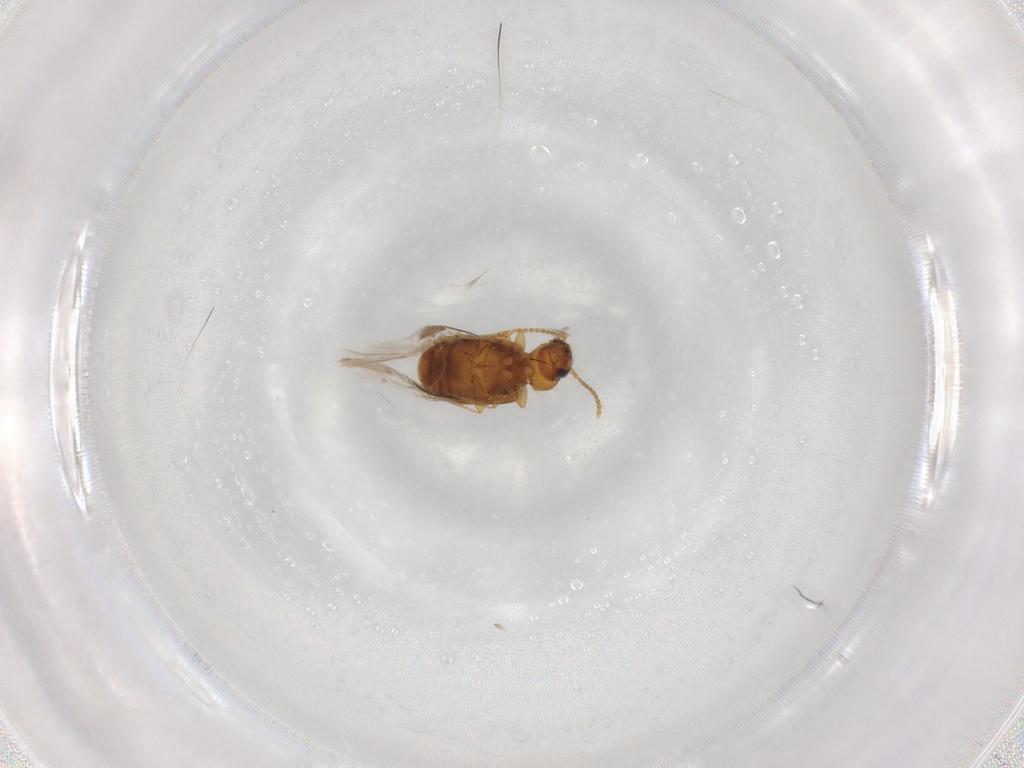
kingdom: Animalia
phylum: Arthropoda
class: Insecta
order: Coleoptera
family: Carabidae
